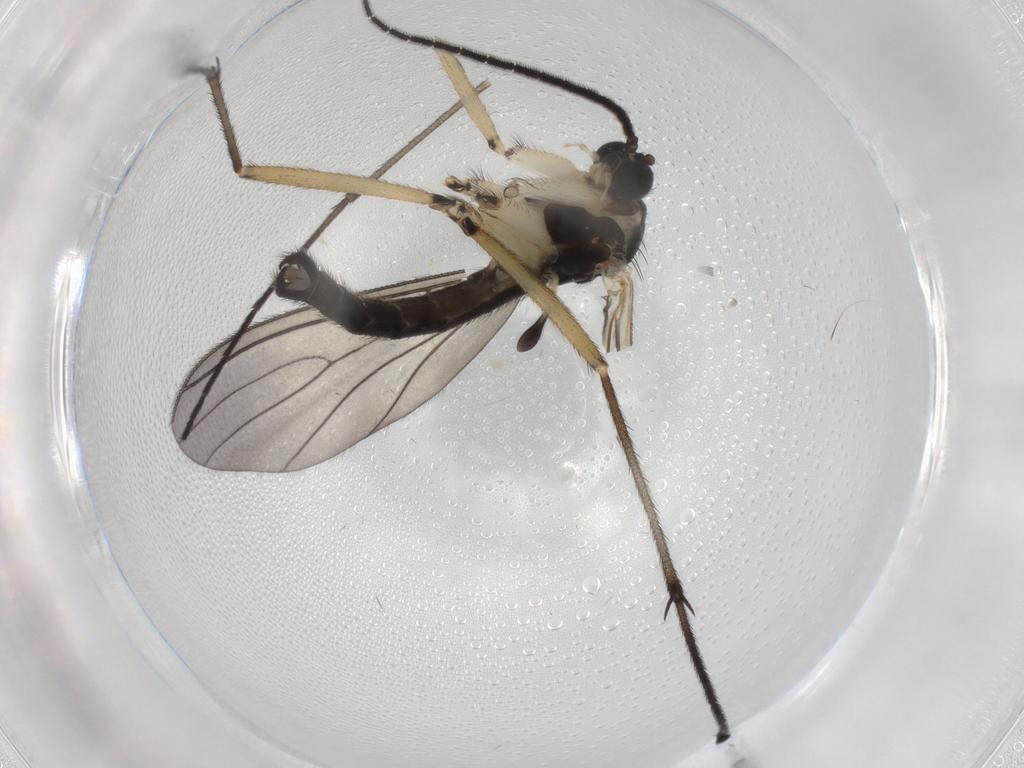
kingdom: Animalia
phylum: Arthropoda
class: Insecta
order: Diptera
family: Sciaridae
